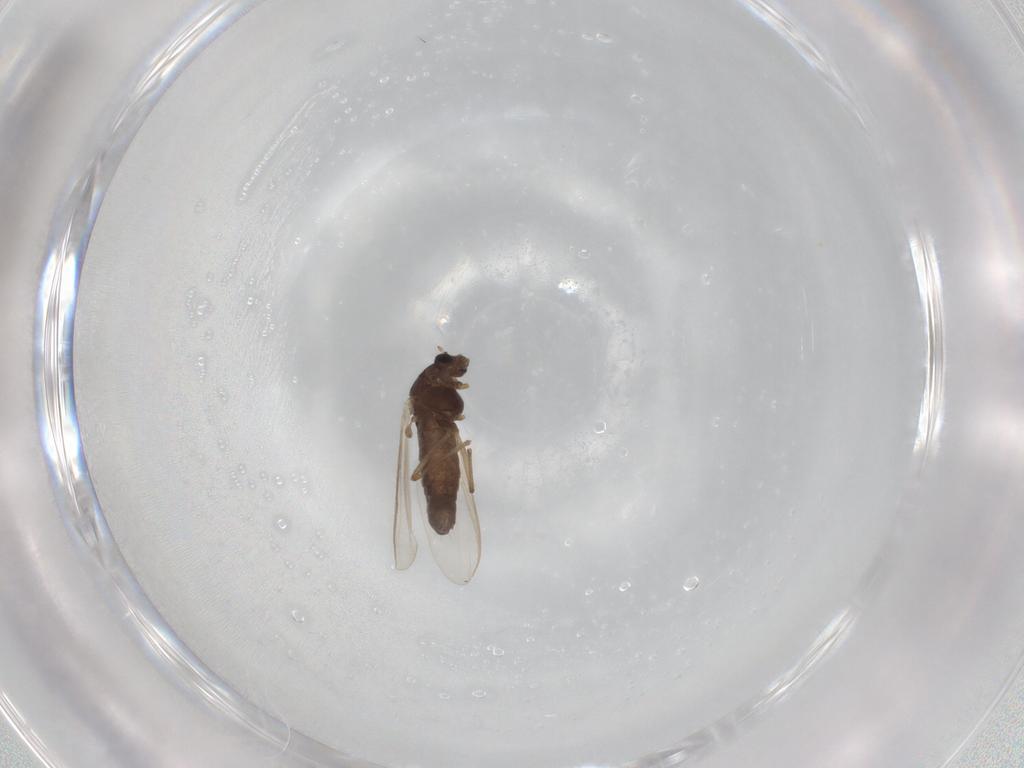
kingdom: Animalia
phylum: Arthropoda
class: Insecta
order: Diptera
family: Chironomidae
